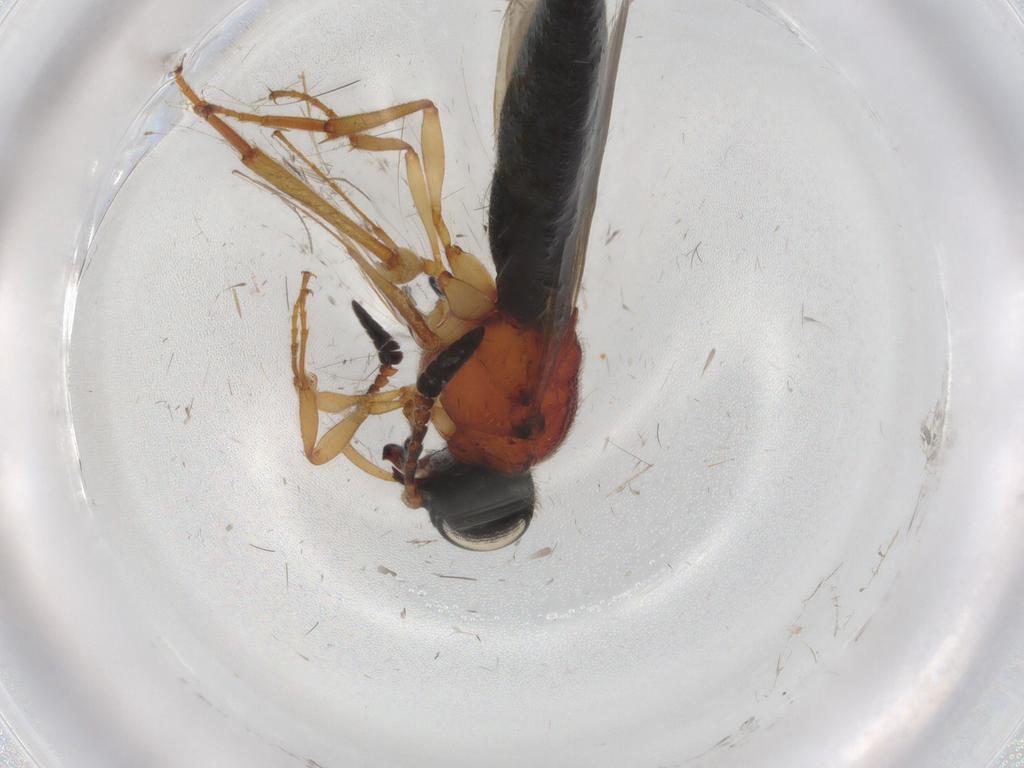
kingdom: Animalia
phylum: Arthropoda
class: Insecta
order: Hymenoptera
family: Scelionidae
